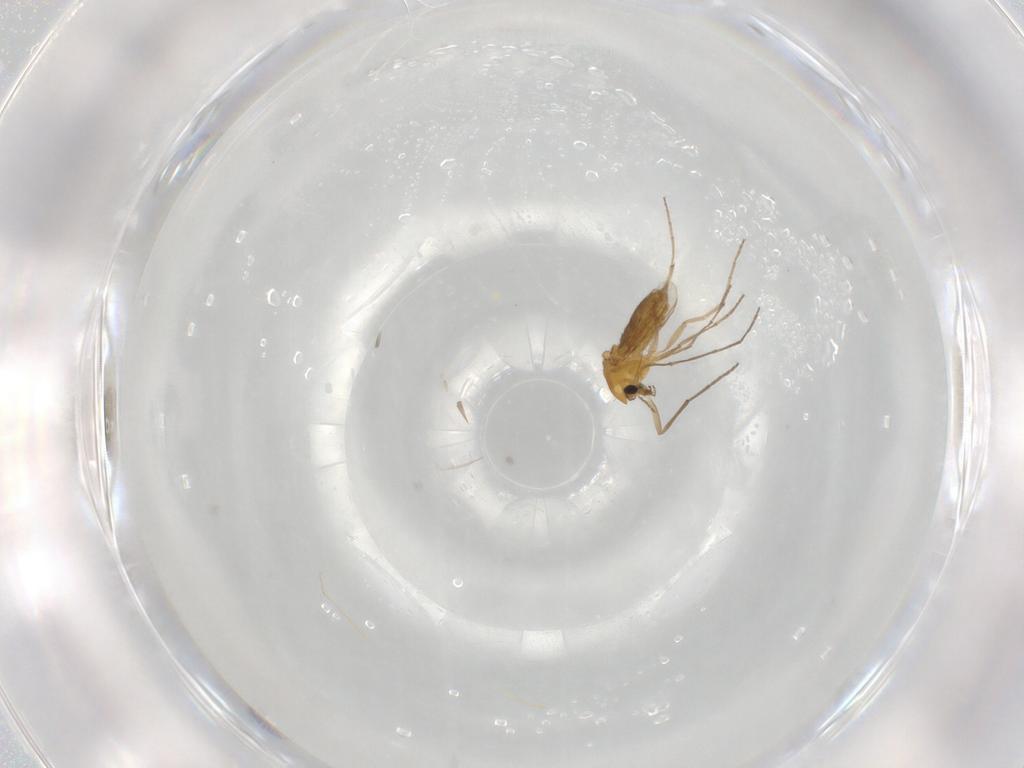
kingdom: Animalia
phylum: Arthropoda
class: Insecta
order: Diptera
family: Chironomidae
